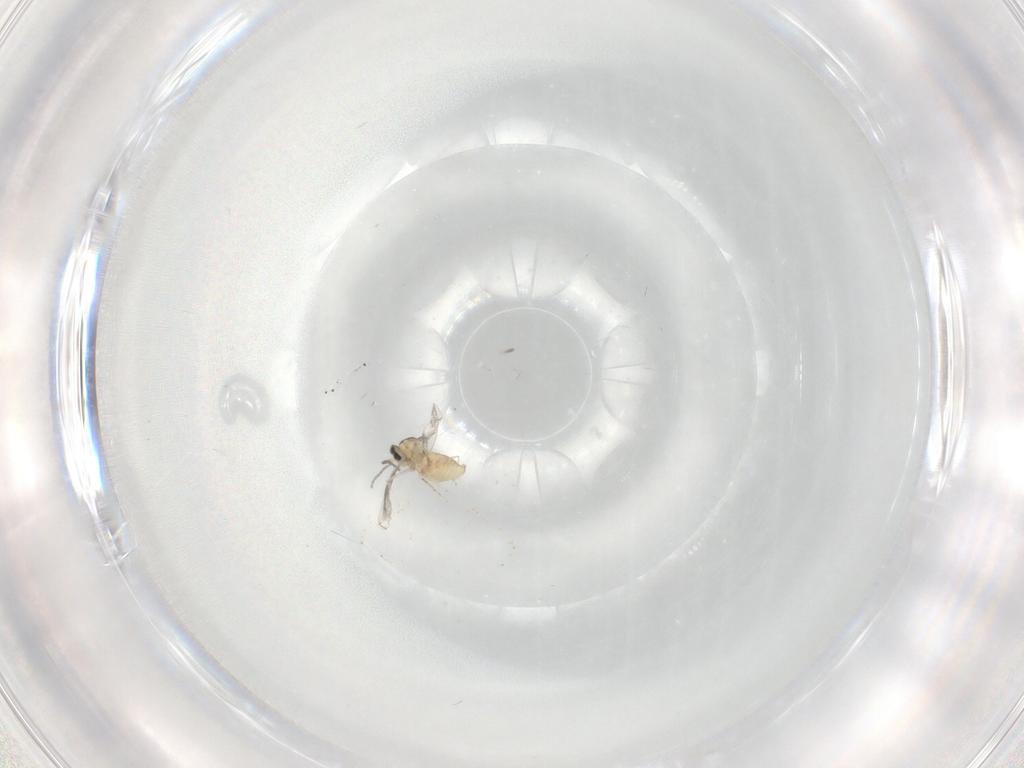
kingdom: Animalia
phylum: Arthropoda
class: Insecta
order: Diptera
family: Cecidomyiidae
